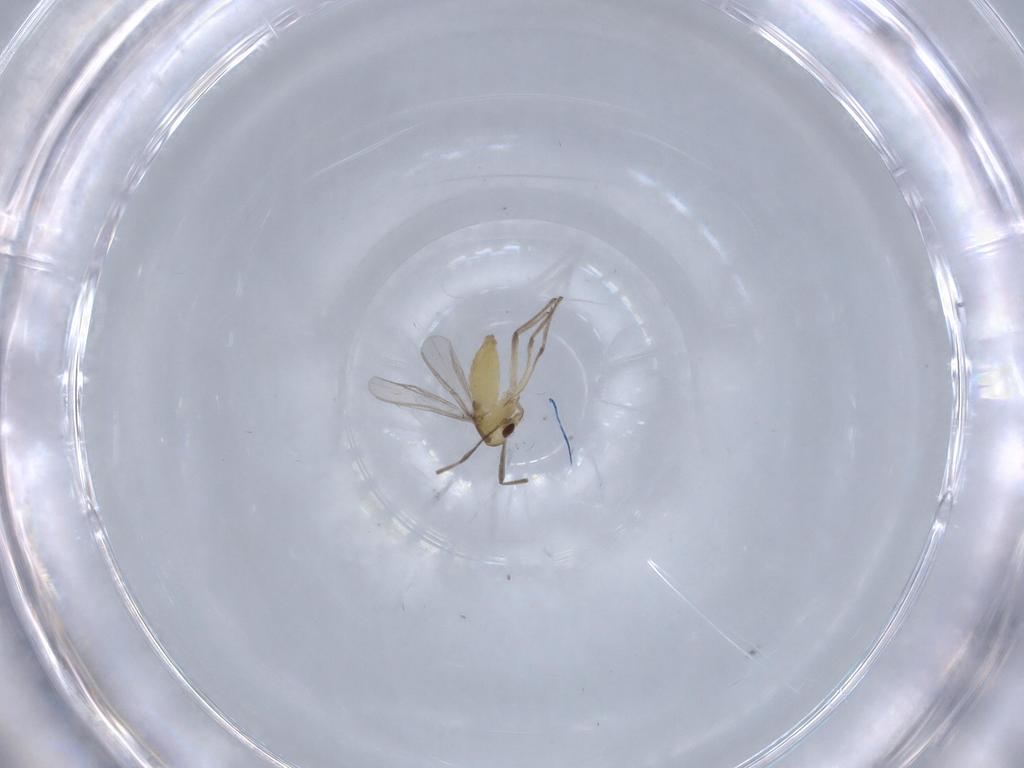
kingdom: Animalia
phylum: Arthropoda
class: Insecta
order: Diptera
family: Chironomidae
